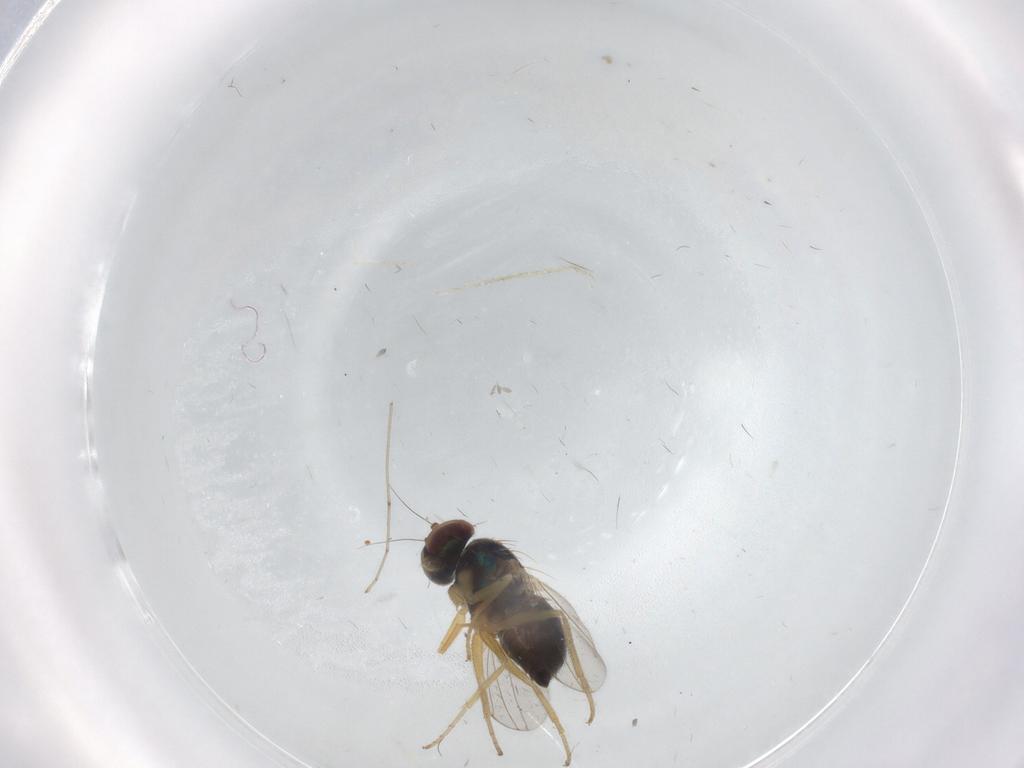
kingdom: Animalia
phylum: Arthropoda
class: Insecta
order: Diptera
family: Dolichopodidae
